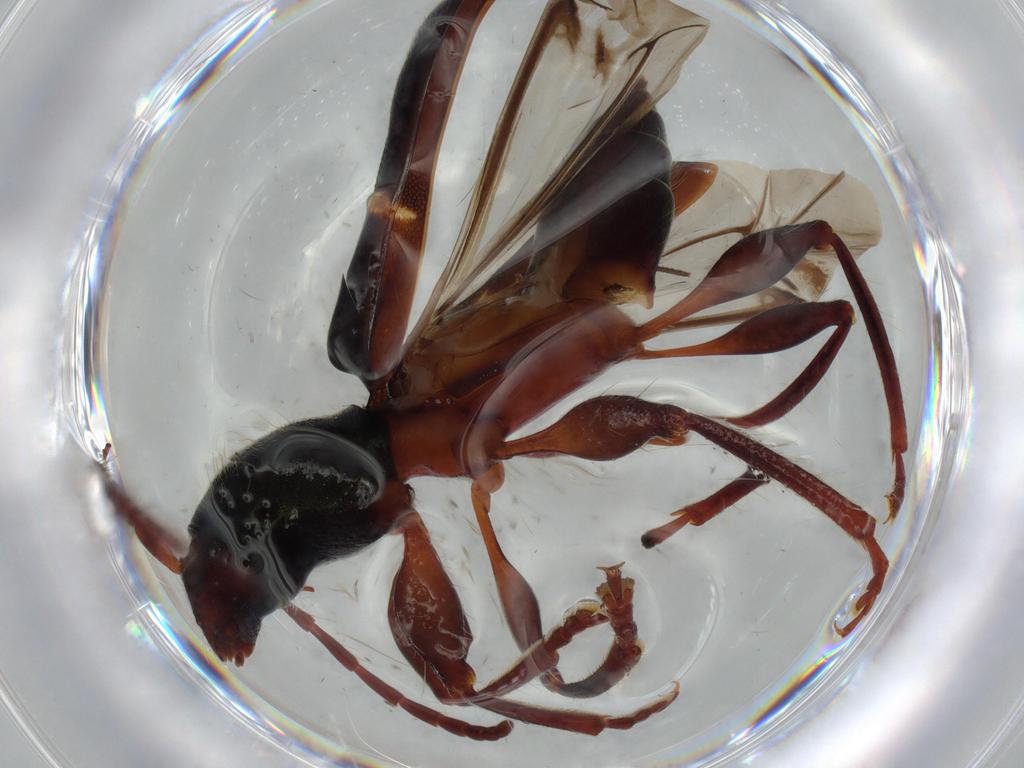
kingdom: Animalia
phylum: Arthropoda
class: Insecta
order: Coleoptera
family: Cerambycidae
